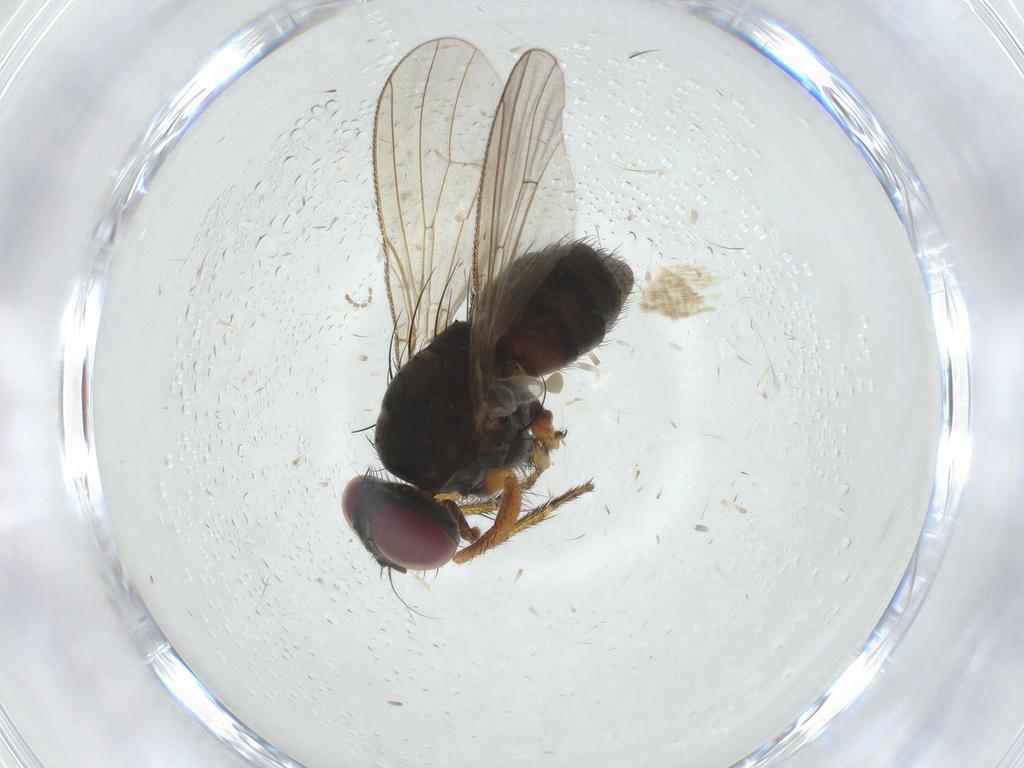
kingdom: Animalia
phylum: Arthropoda
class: Insecta
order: Diptera
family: Muscidae
